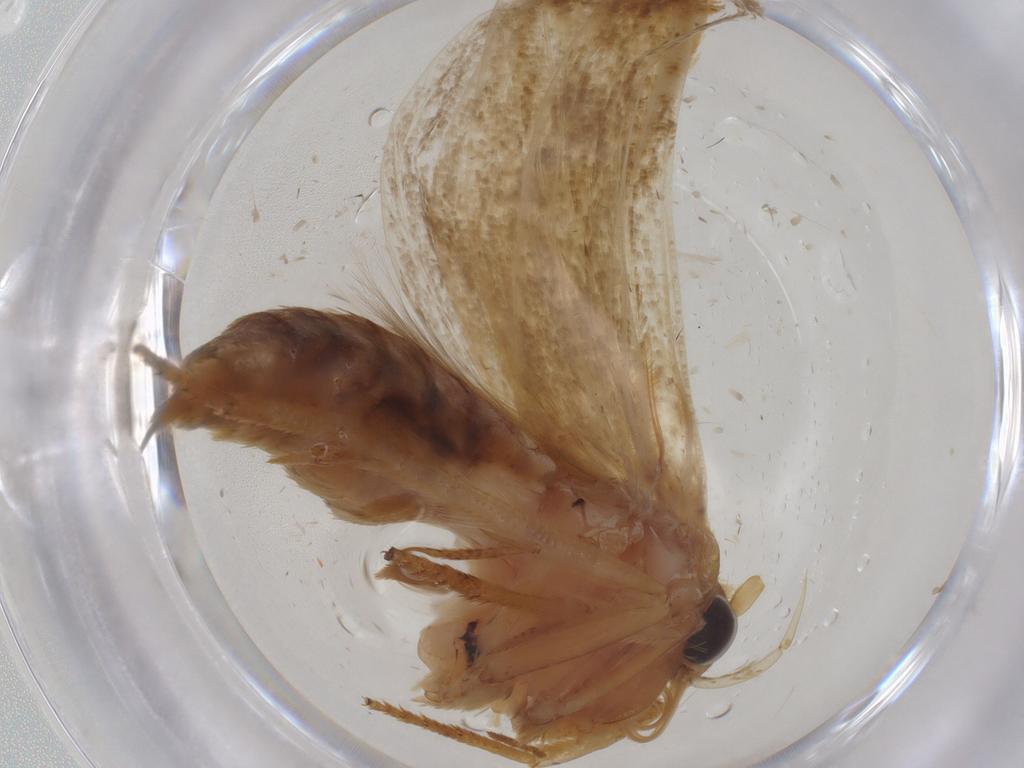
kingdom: Animalia
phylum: Arthropoda
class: Insecta
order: Lepidoptera
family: Blastobasidae
